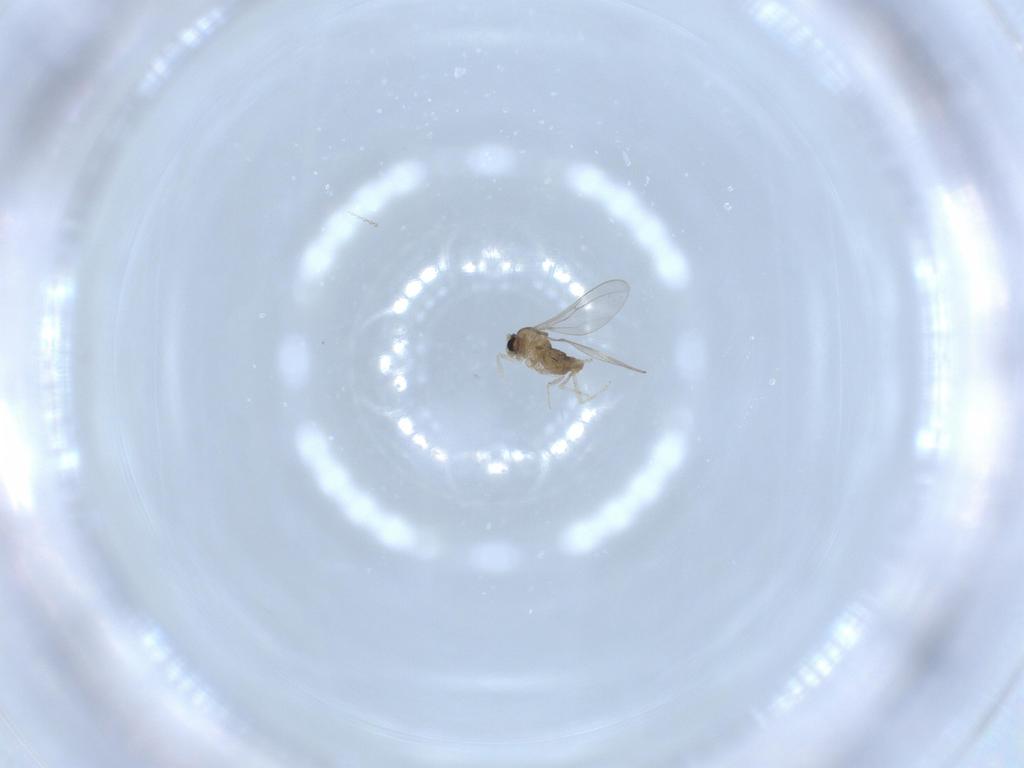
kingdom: Animalia
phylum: Arthropoda
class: Insecta
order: Diptera
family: Cecidomyiidae
